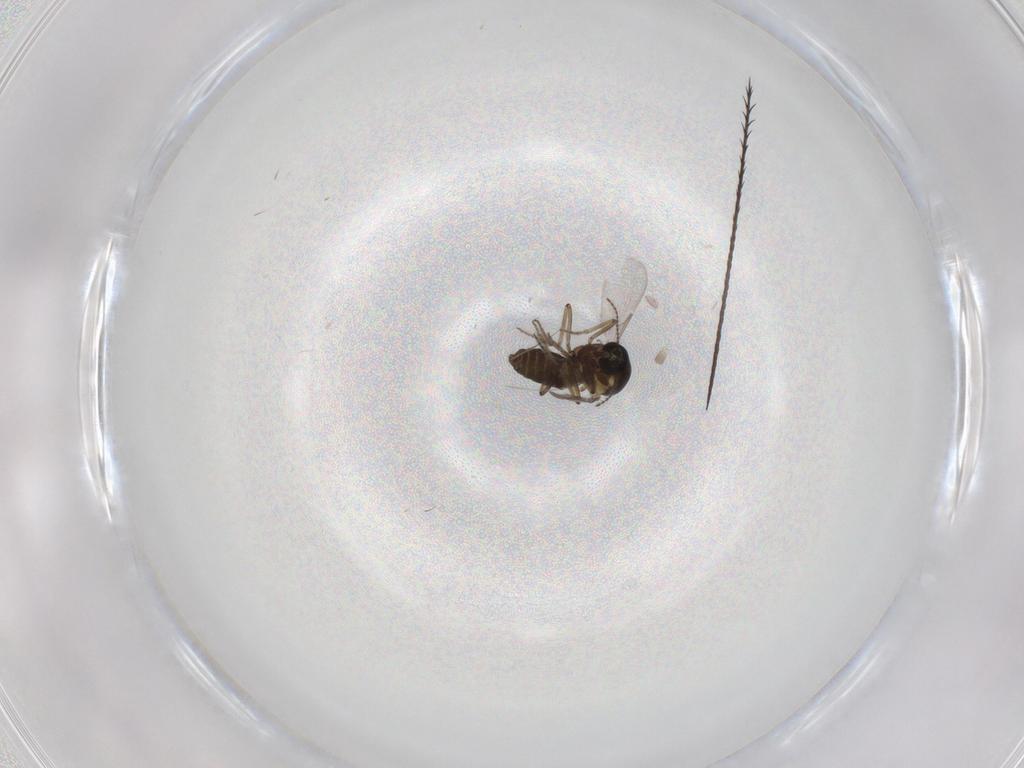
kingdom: Animalia
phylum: Arthropoda
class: Insecta
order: Diptera
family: Ceratopogonidae
